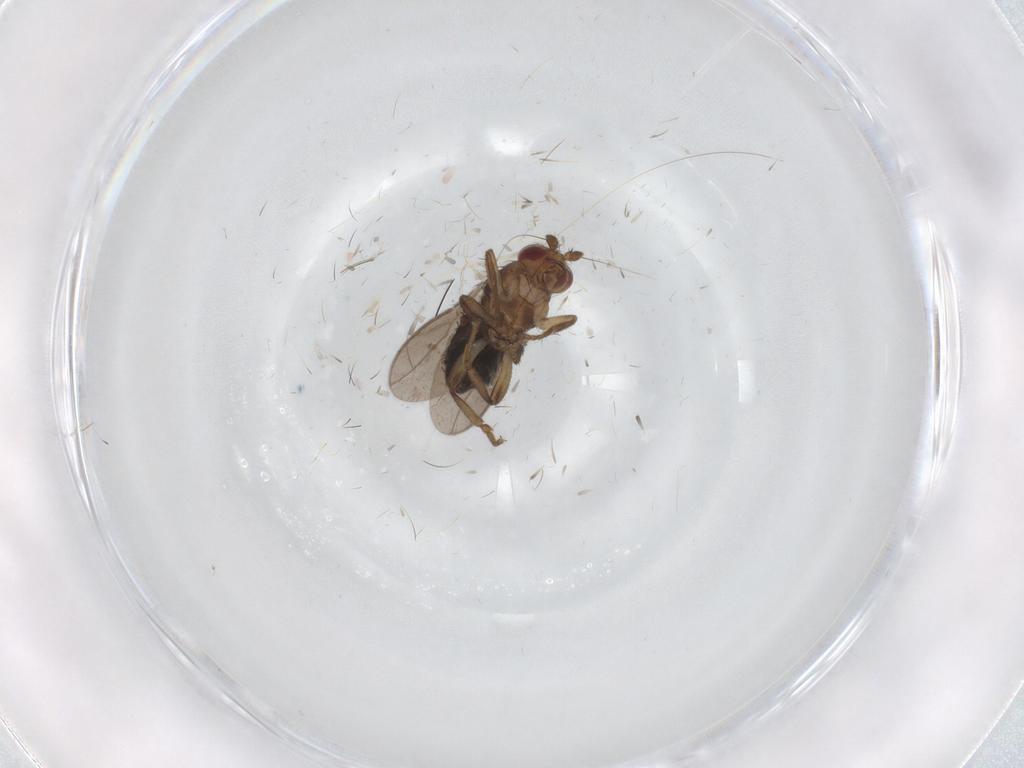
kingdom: Animalia
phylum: Arthropoda
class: Insecta
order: Diptera
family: Sphaeroceridae
